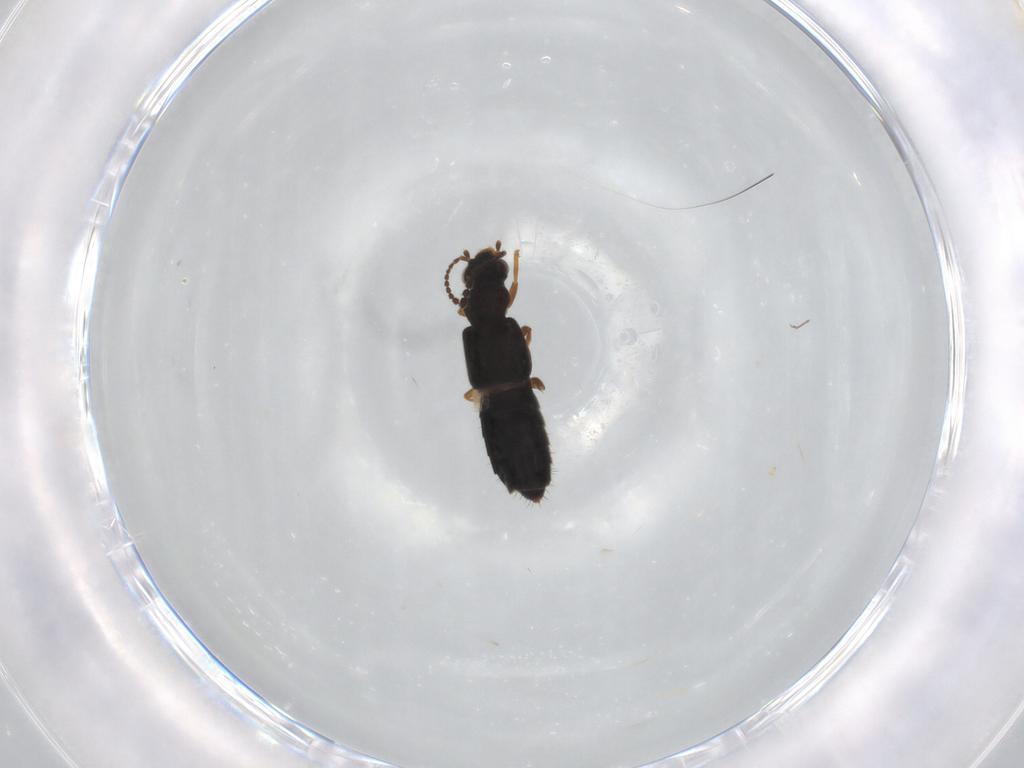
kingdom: Animalia
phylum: Arthropoda
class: Insecta
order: Coleoptera
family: Staphylinidae
